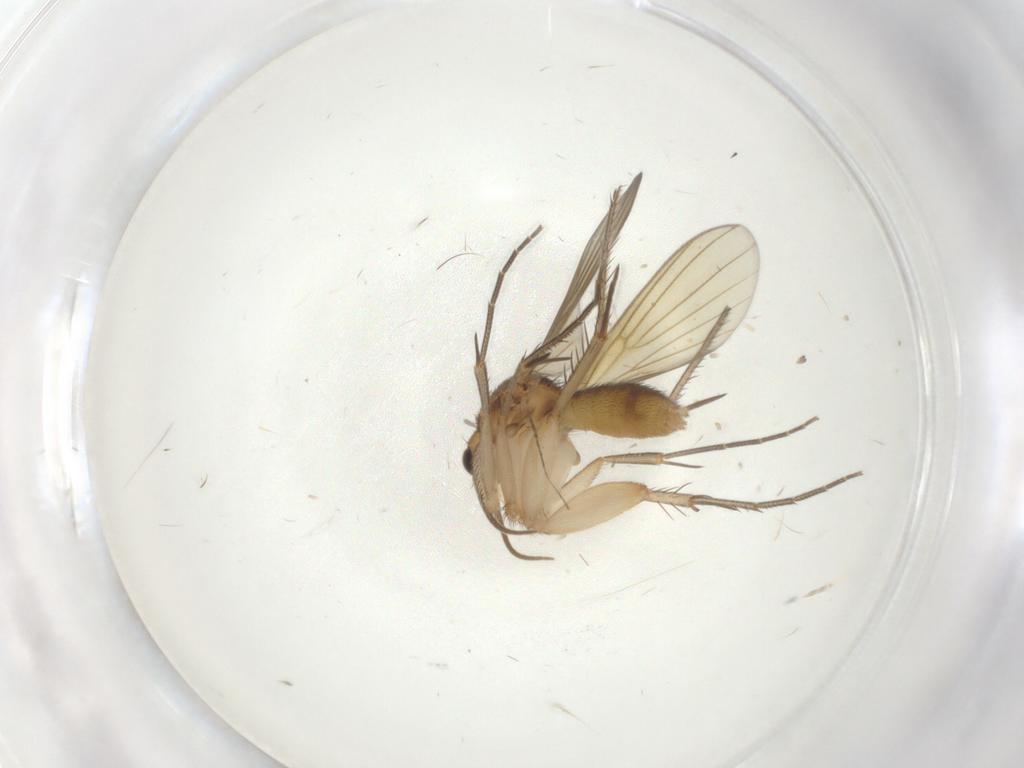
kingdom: Animalia
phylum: Arthropoda
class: Insecta
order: Diptera
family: Mycetophilidae
